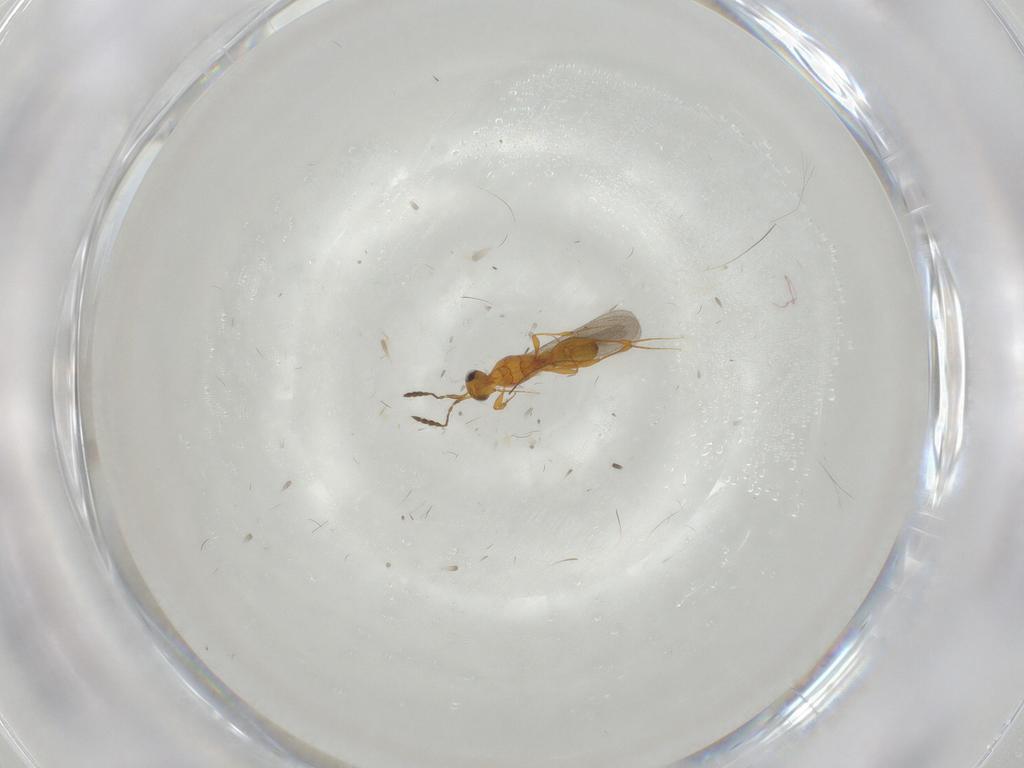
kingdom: Animalia
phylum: Arthropoda
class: Insecta
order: Hymenoptera
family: Platygastridae
